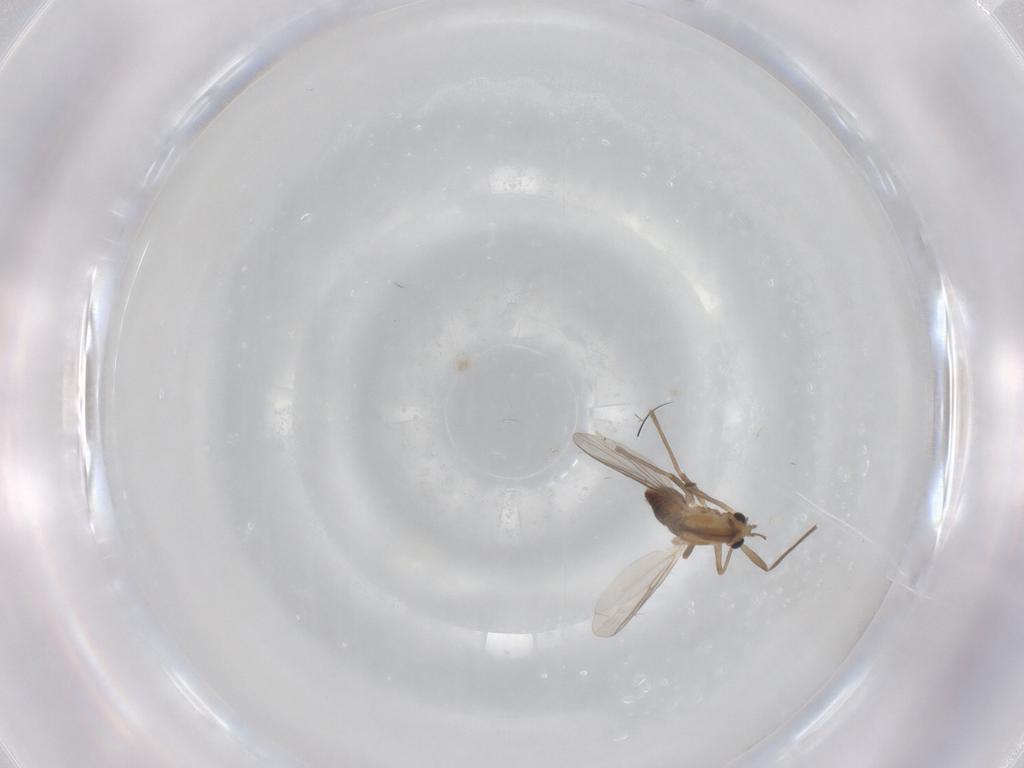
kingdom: Animalia
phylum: Arthropoda
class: Insecta
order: Diptera
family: Chironomidae
